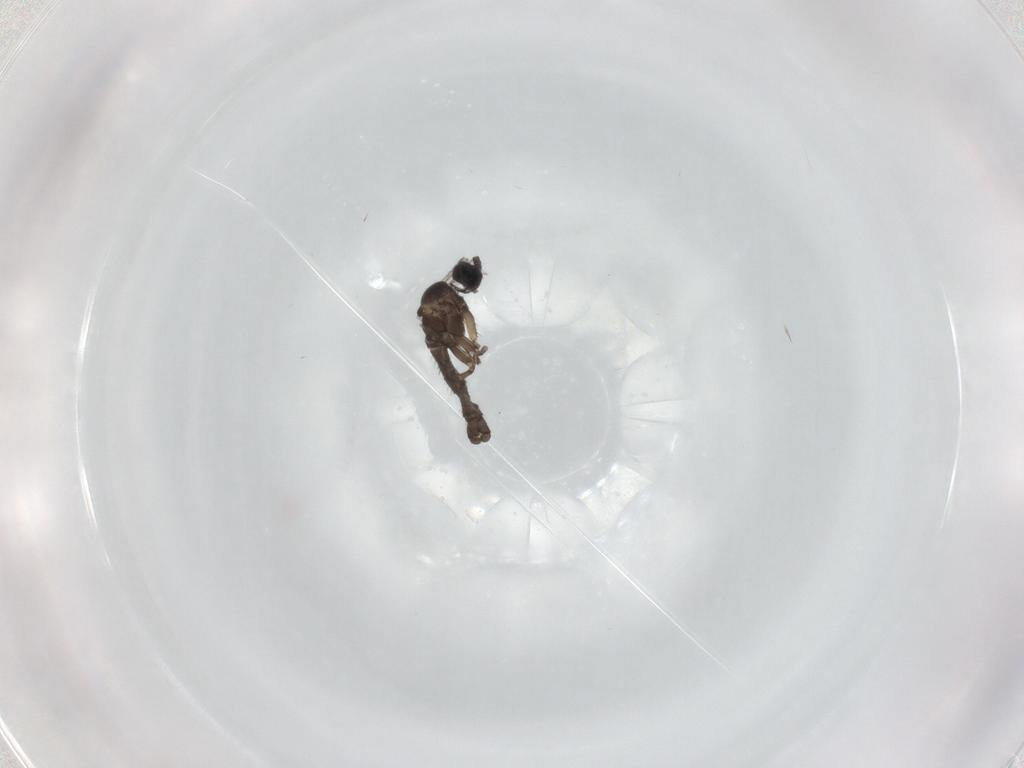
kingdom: Animalia
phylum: Arthropoda
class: Insecta
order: Diptera
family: Sciaridae
